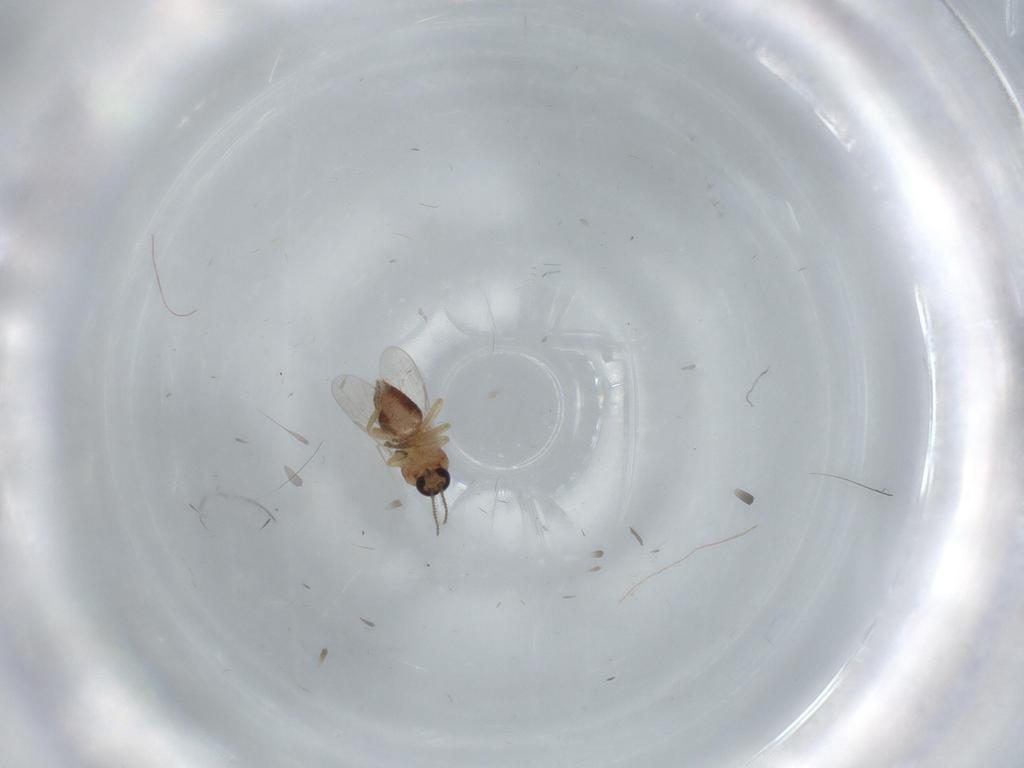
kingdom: Animalia
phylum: Arthropoda
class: Insecta
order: Diptera
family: Ceratopogonidae
